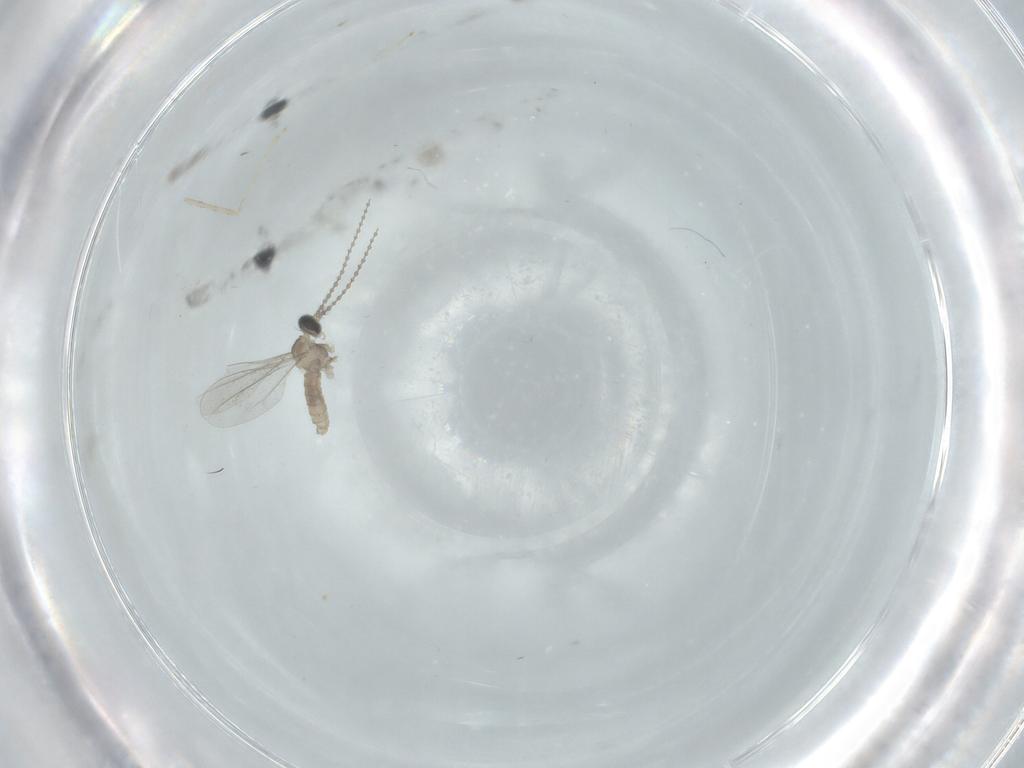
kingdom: Animalia
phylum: Arthropoda
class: Insecta
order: Diptera
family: Cecidomyiidae
